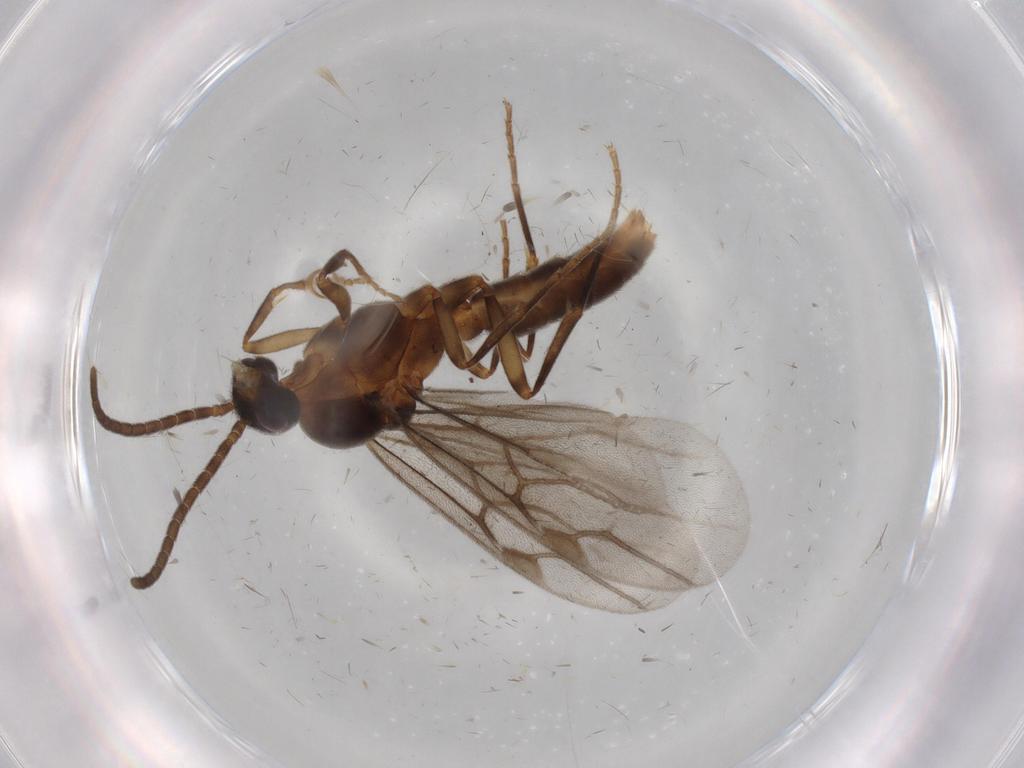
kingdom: Animalia
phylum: Arthropoda
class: Insecta
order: Hymenoptera
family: Formicidae
